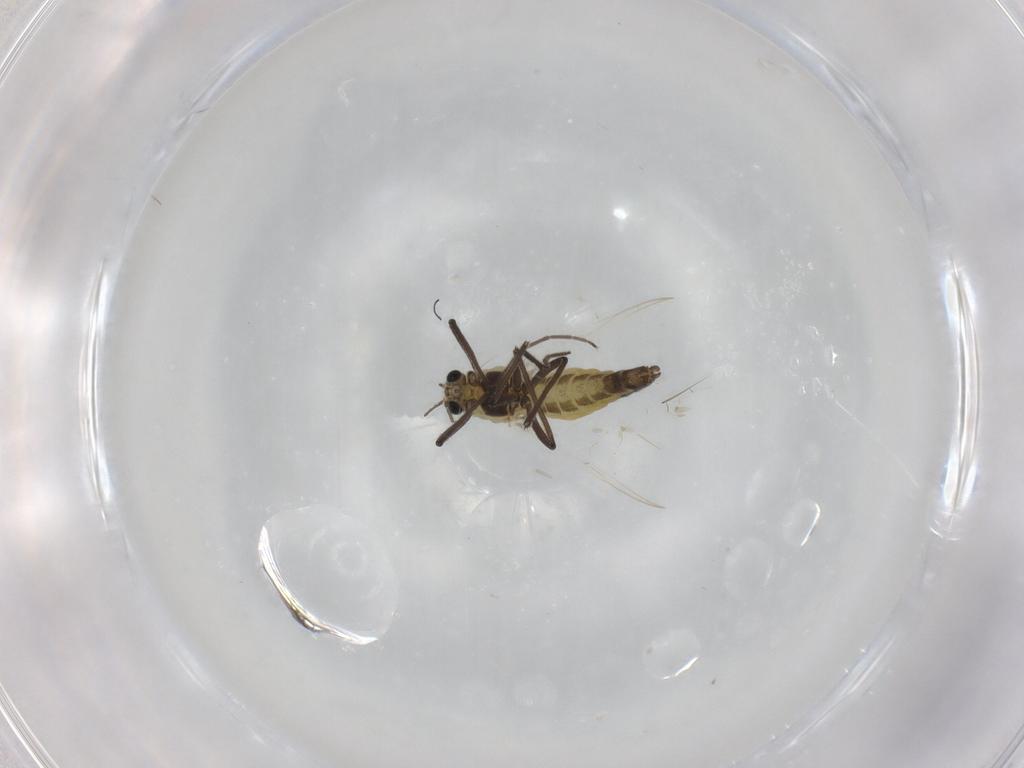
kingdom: Animalia
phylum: Arthropoda
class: Insecta
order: Diptera
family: Chironomidae
